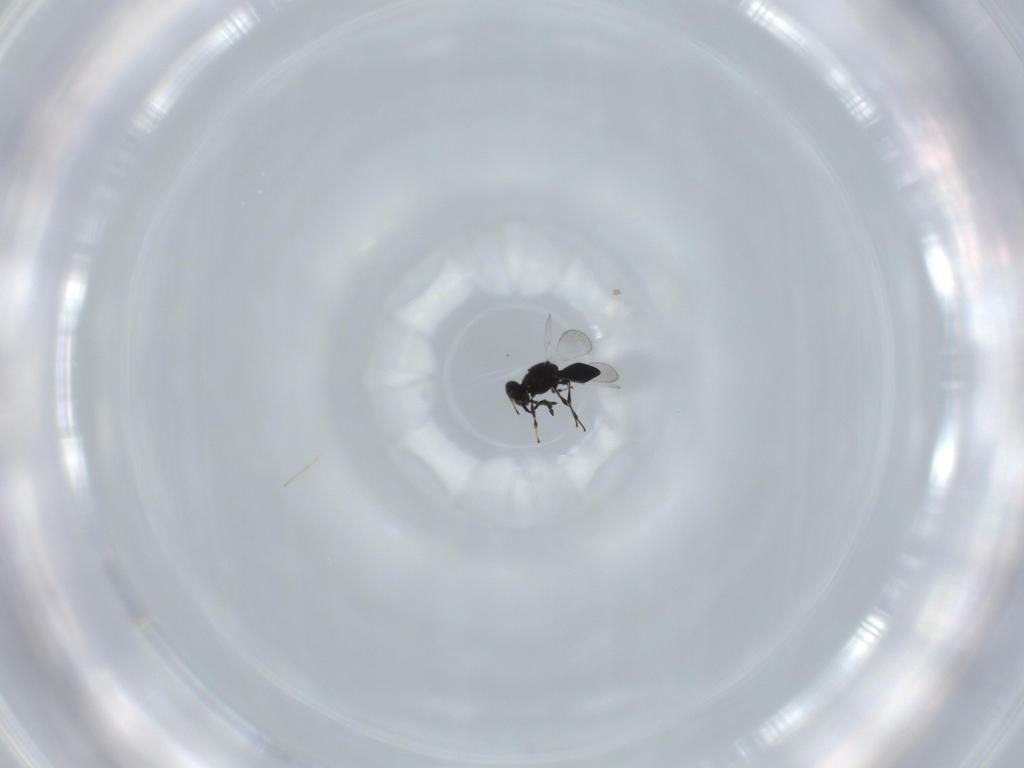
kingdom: Animalia
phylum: Arthropoda
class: Insecta
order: Hymenoptera
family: Platygastridae
